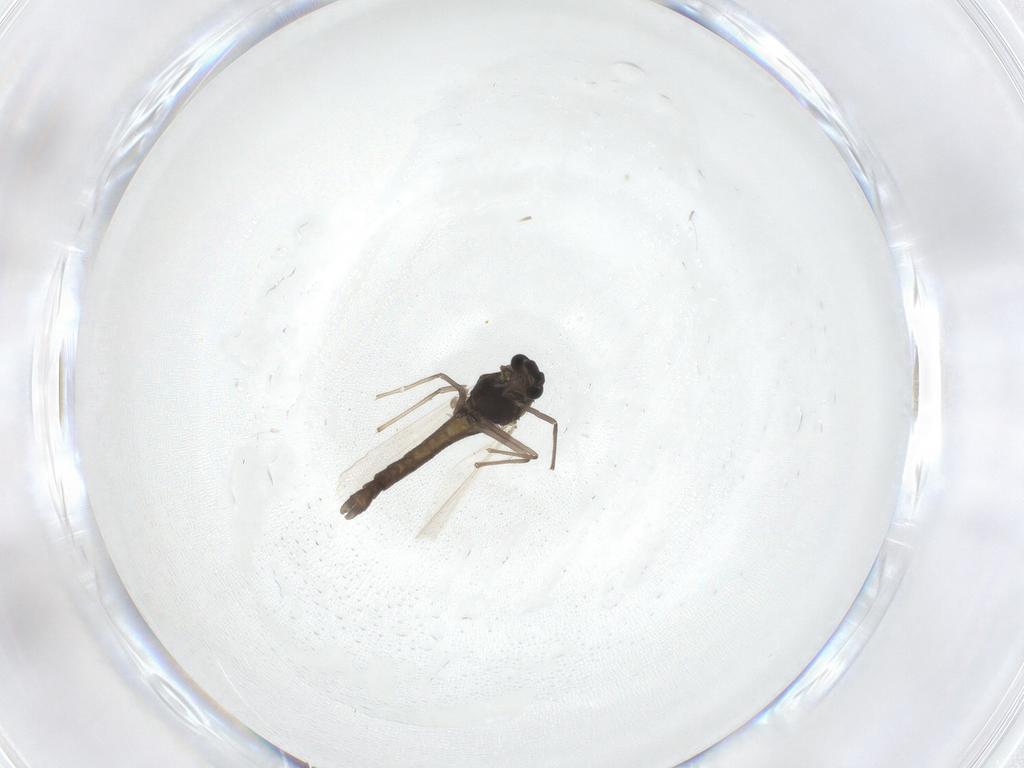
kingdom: Animalia
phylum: Arthropoda
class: Insecta
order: Diptera
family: Chironomidae
